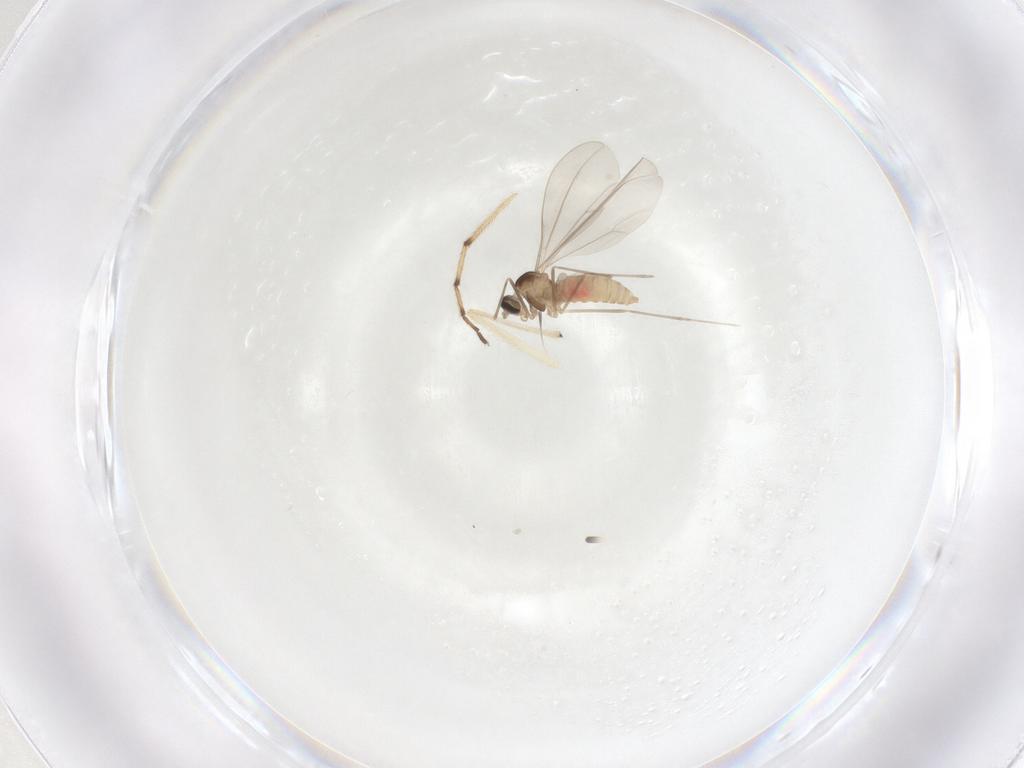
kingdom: Animalia
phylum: Arthropoda
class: Insecta
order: Diptera
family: Cecidomyiidae
